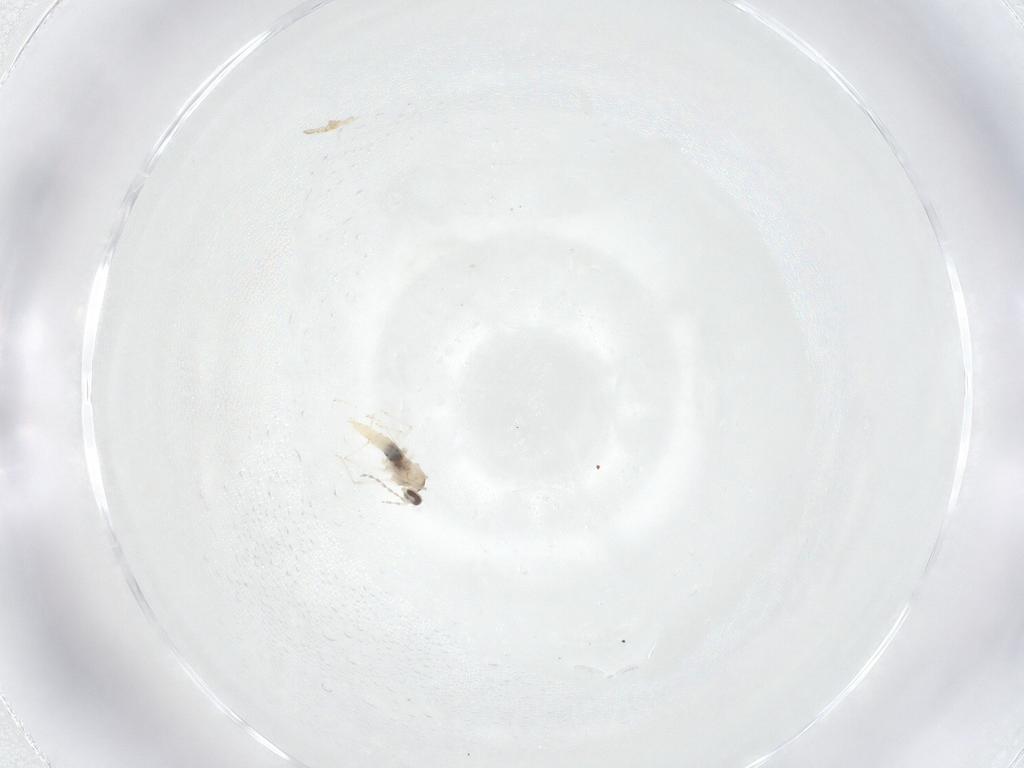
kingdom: Animalia
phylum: Arthropoda
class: Insecta
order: Diptera
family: Cecidomyiidae
